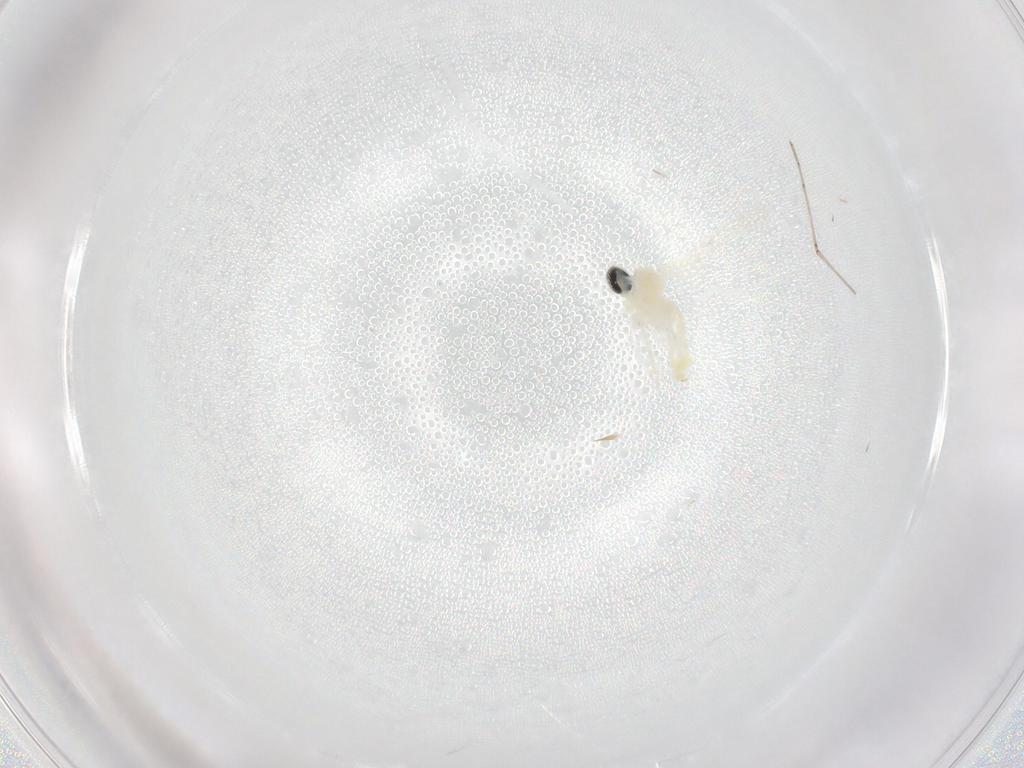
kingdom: Animalia
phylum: Arthropoda
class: Insecta
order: Diptera
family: Cecidomyiidae
